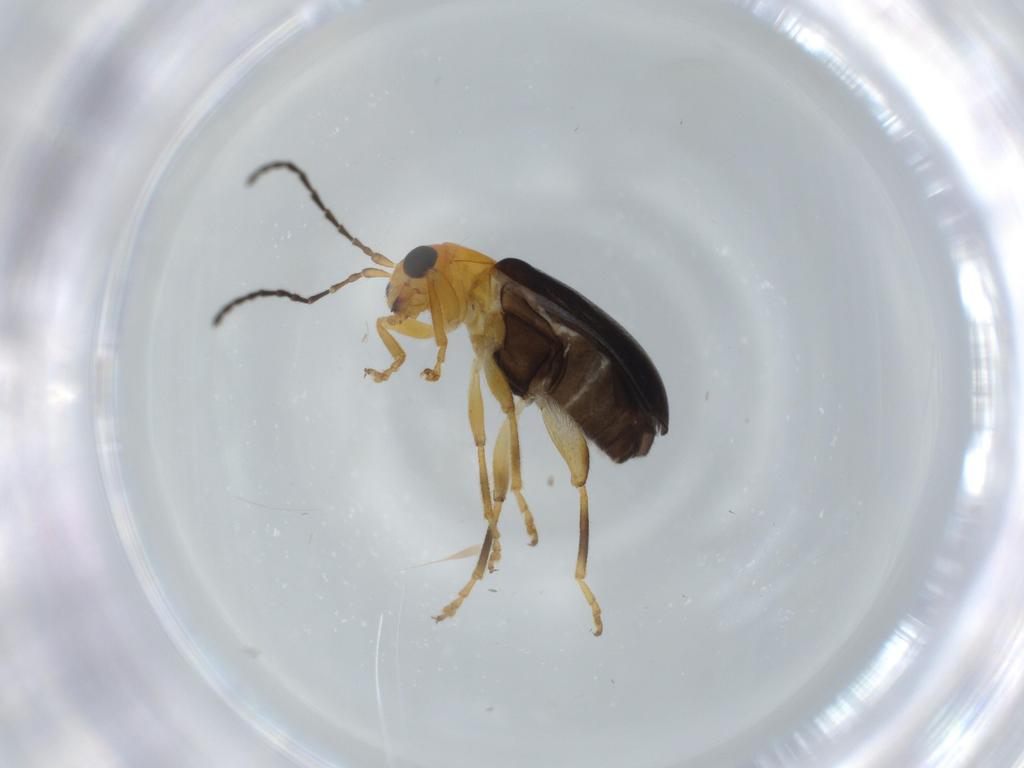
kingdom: Animalia
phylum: Arthropoda
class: Insecta
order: Coleoptera
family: Chrysomelidae
